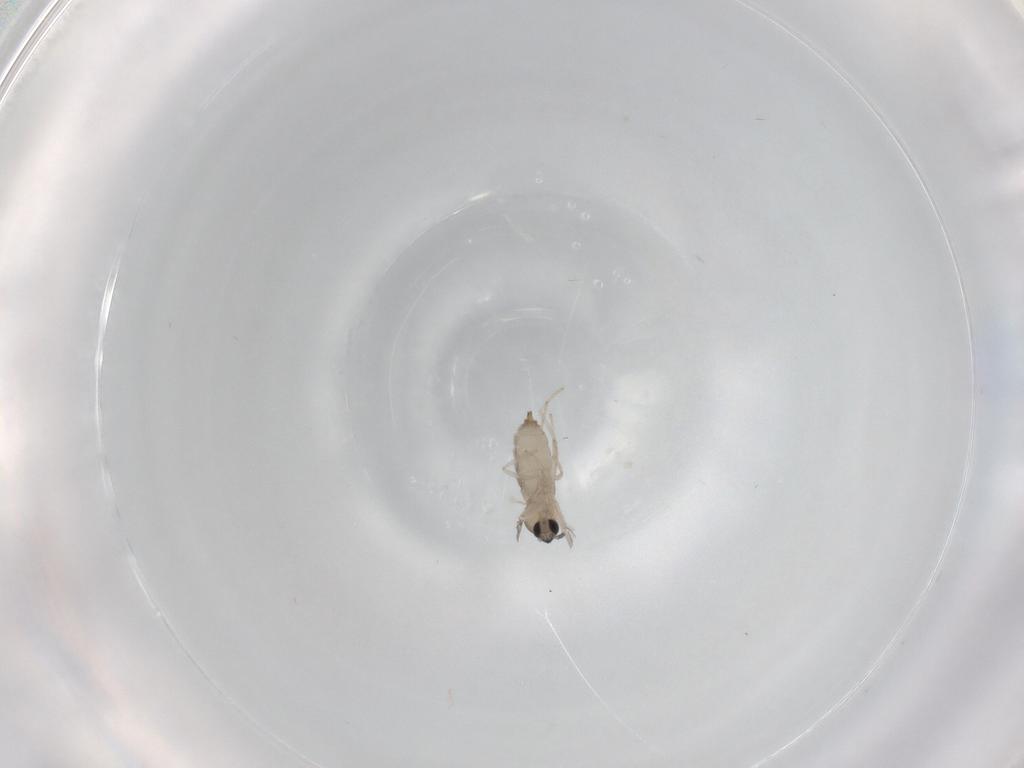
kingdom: Animalia
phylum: Arthropoda
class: Insecta
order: Diptera
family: Cecidomyiidae
